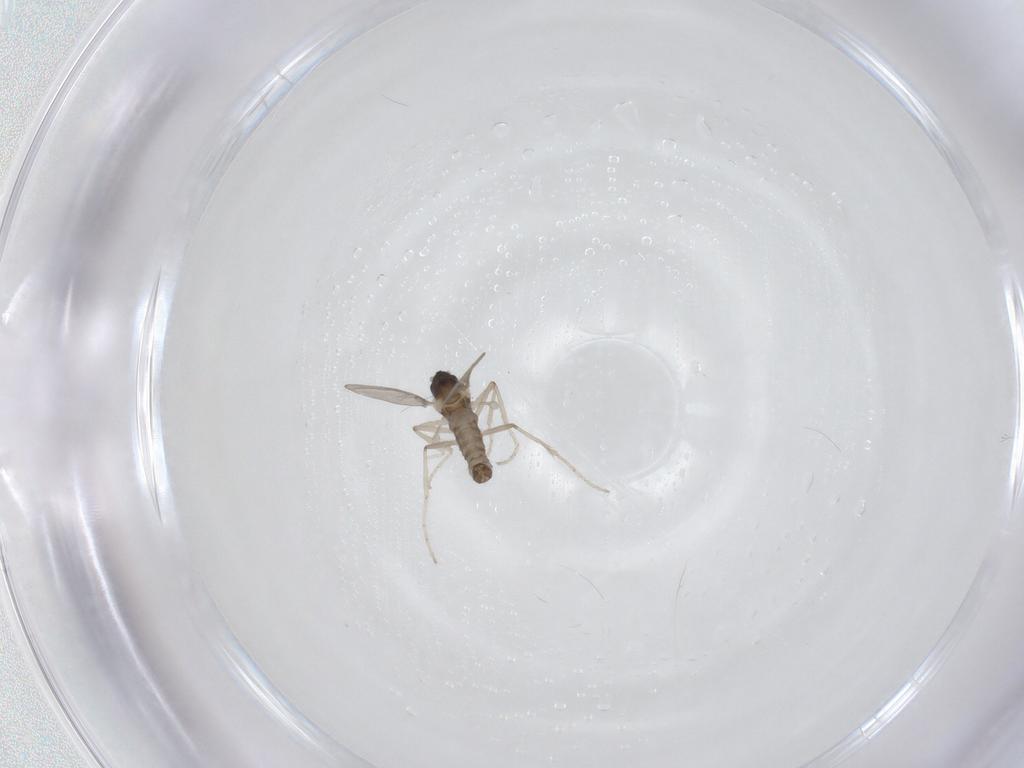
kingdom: Animalia
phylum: Arthropoda
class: Insecta
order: Diptera
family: Cecidomyiidae
